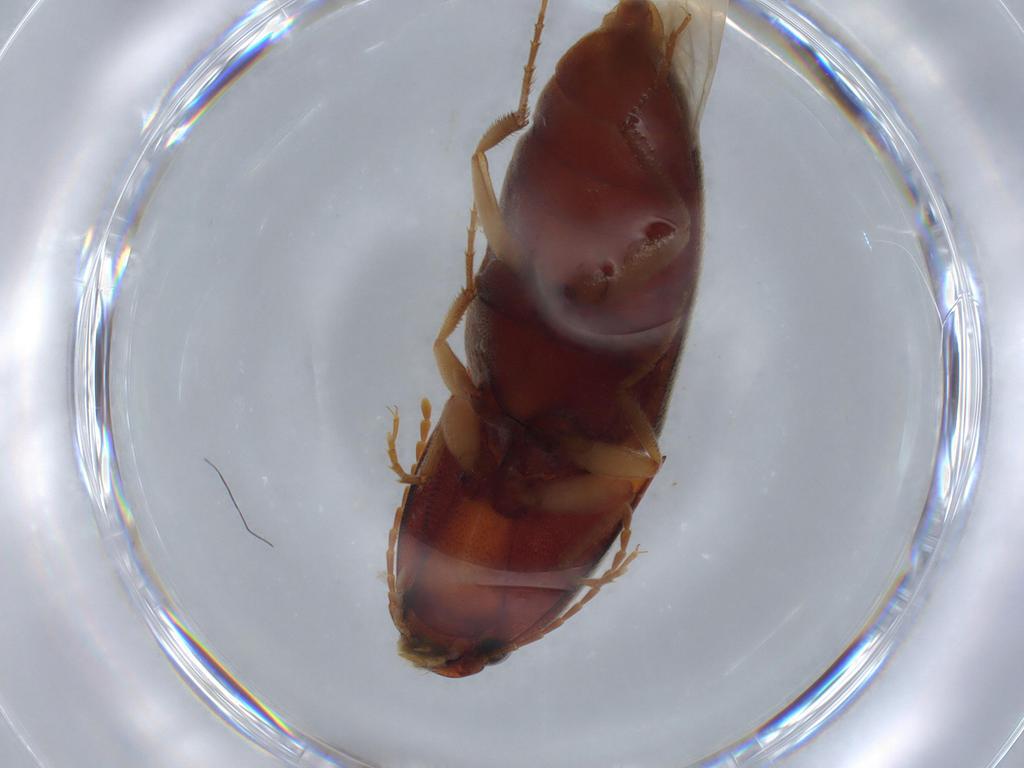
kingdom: Animalia
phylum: Arthropoda
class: Insecta
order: Coleoptera
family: Elateridae
